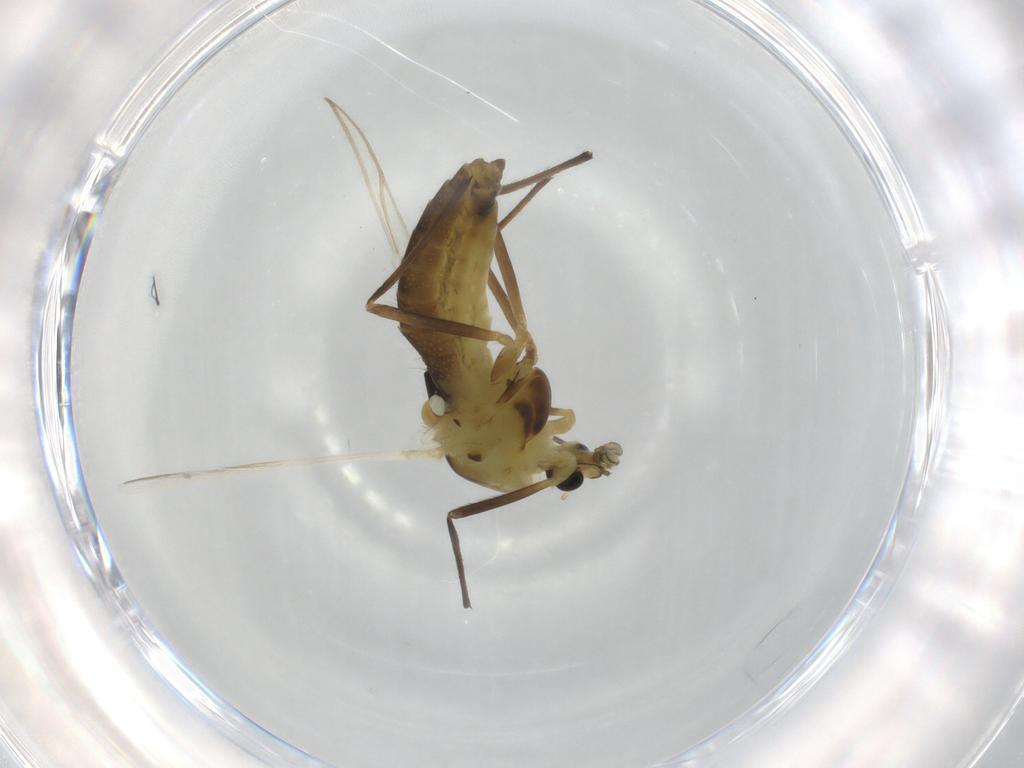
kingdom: Animalia
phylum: Arthropoda
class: Insecta
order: Diptera
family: Chironomidae
